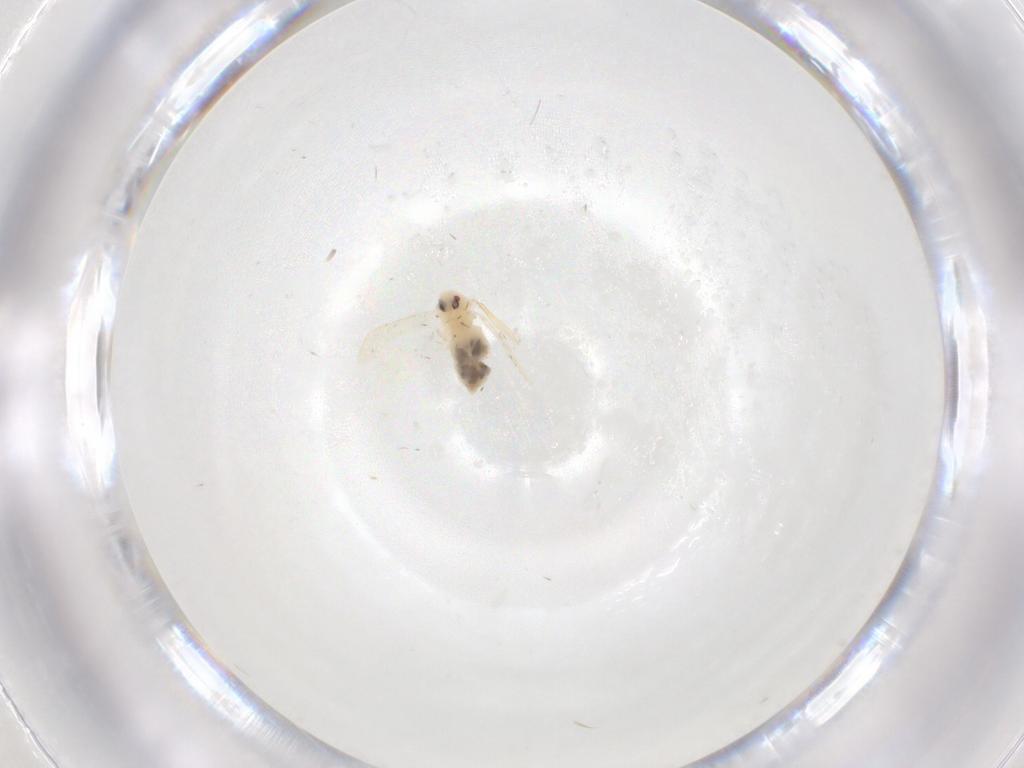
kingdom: Animalia
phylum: Arthropoda
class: Insecta
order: Hemiptera
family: Aleyrodidae
